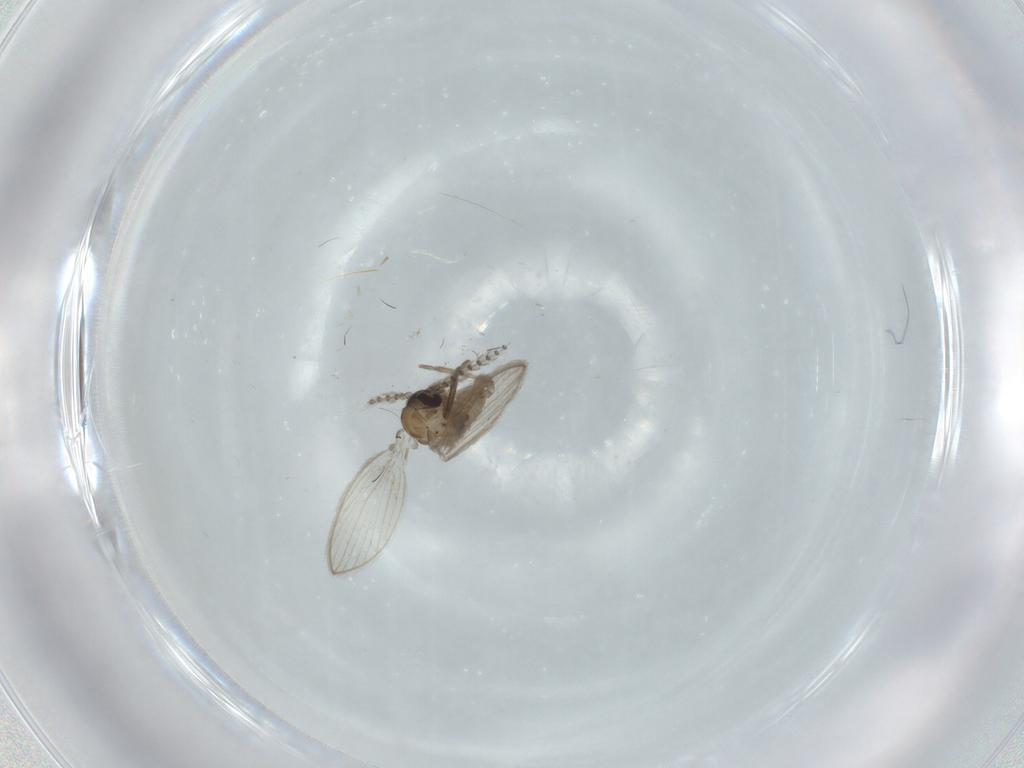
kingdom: Animalia
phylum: Arthropoda
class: Insecta
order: Diptera
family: Psychodidae
